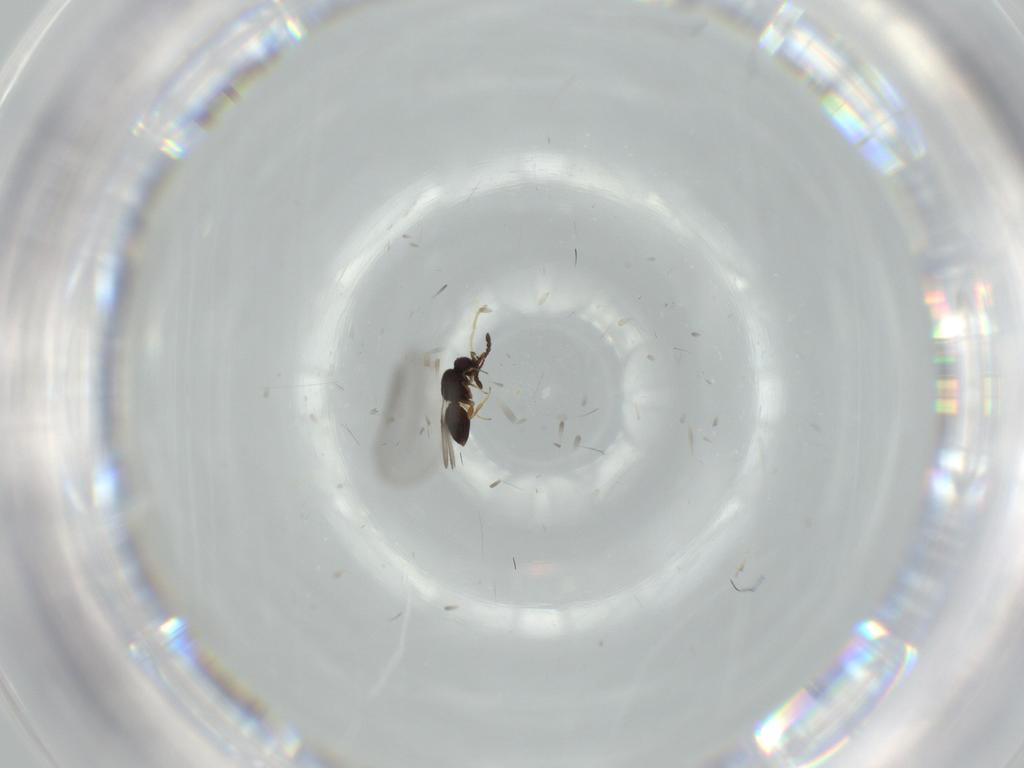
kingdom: Animalia
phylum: Arthropoda
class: Insecta
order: Hymenoptera
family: Braconidae
